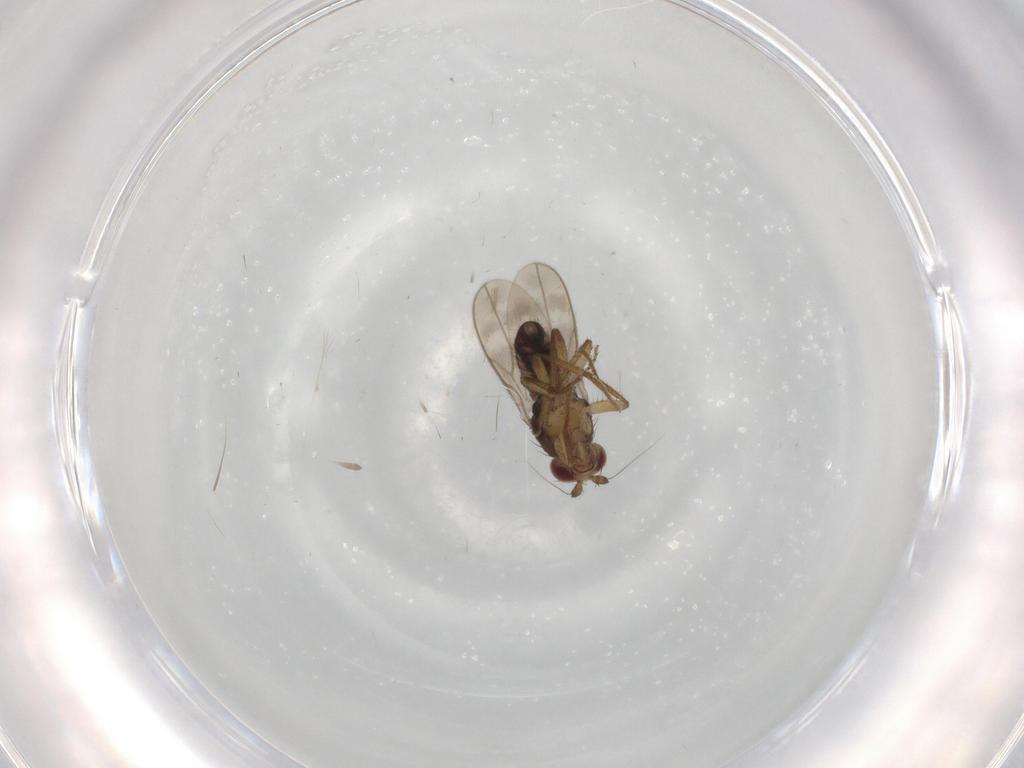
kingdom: Animalia
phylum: Arthropoda
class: Insecta
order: Diptera
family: Sphaeroceridae
